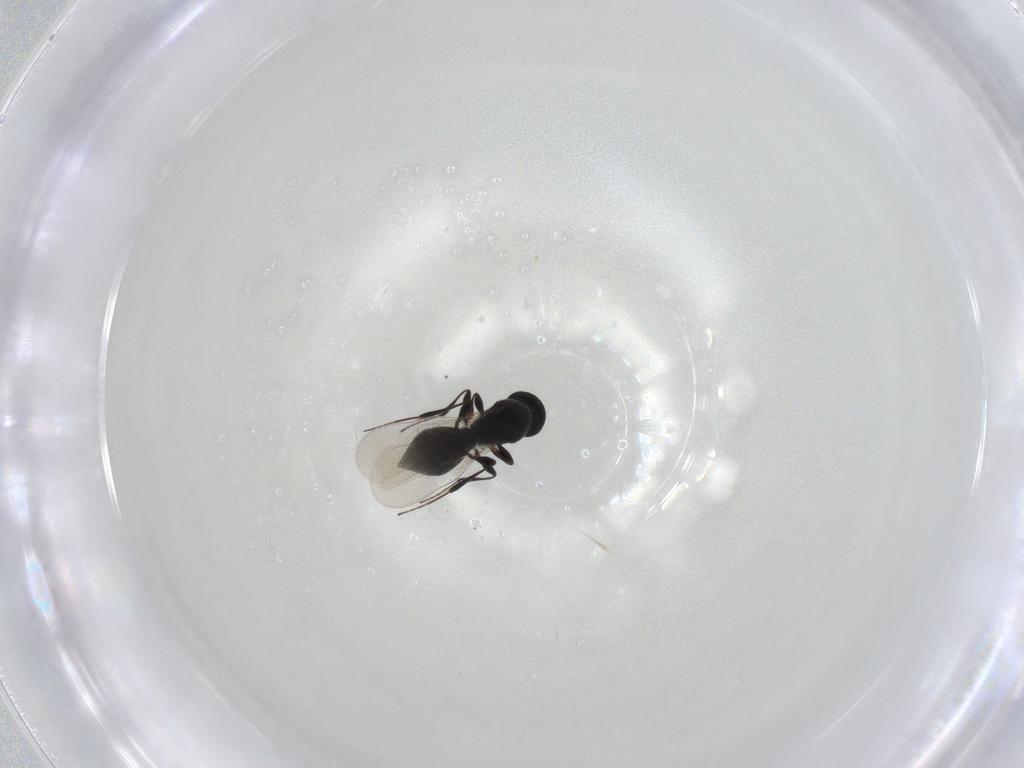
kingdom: Animalia
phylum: Arthropoda
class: Insecta
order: Hymenoptera
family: Platygastridae
